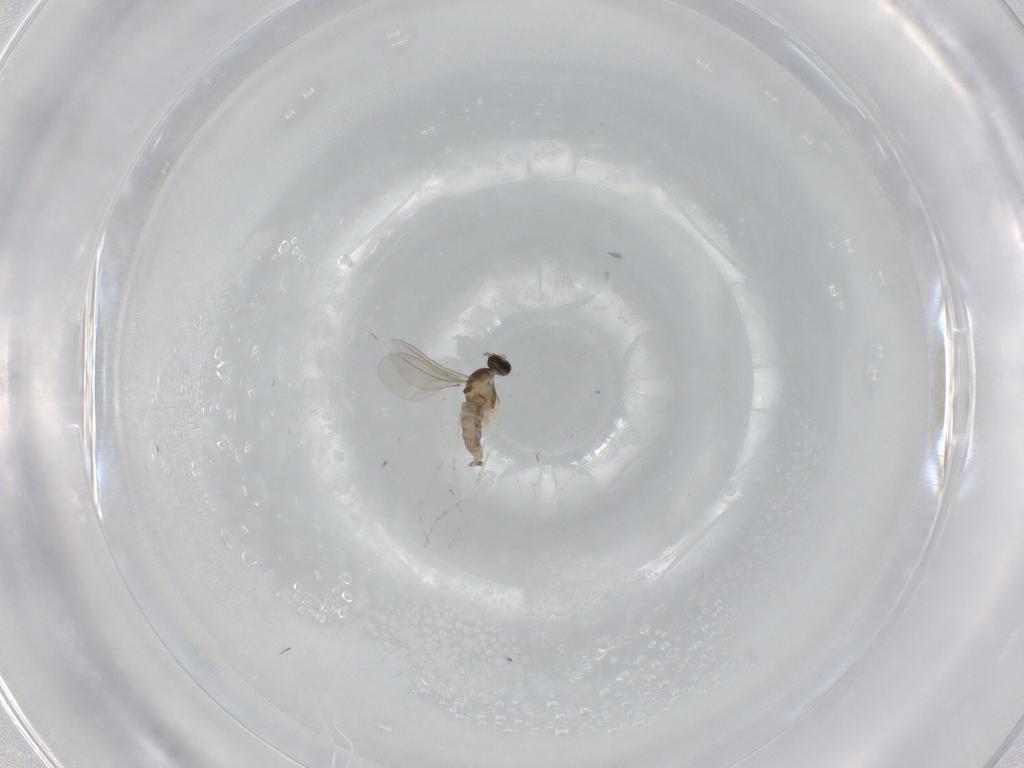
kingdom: Animalia
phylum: Arthropoda
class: Insecta
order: Diptera
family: Cecidomyiidae
